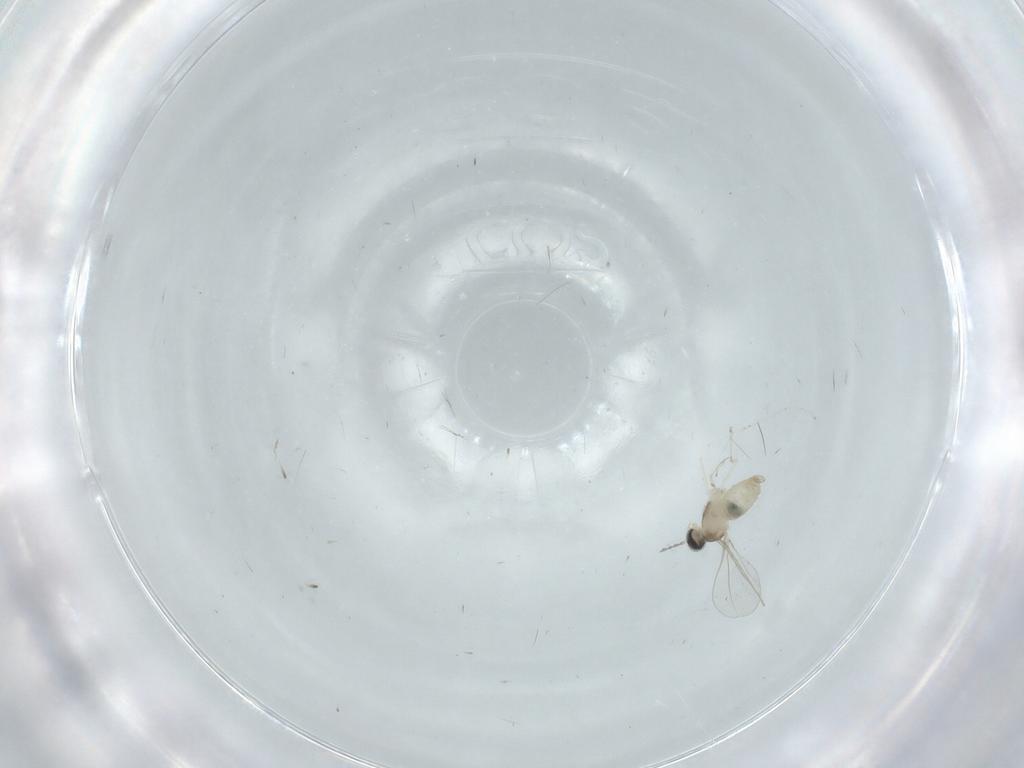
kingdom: Animalia
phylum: Arthropoda
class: Insecta
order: Diptera
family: Cecidomyiidae
